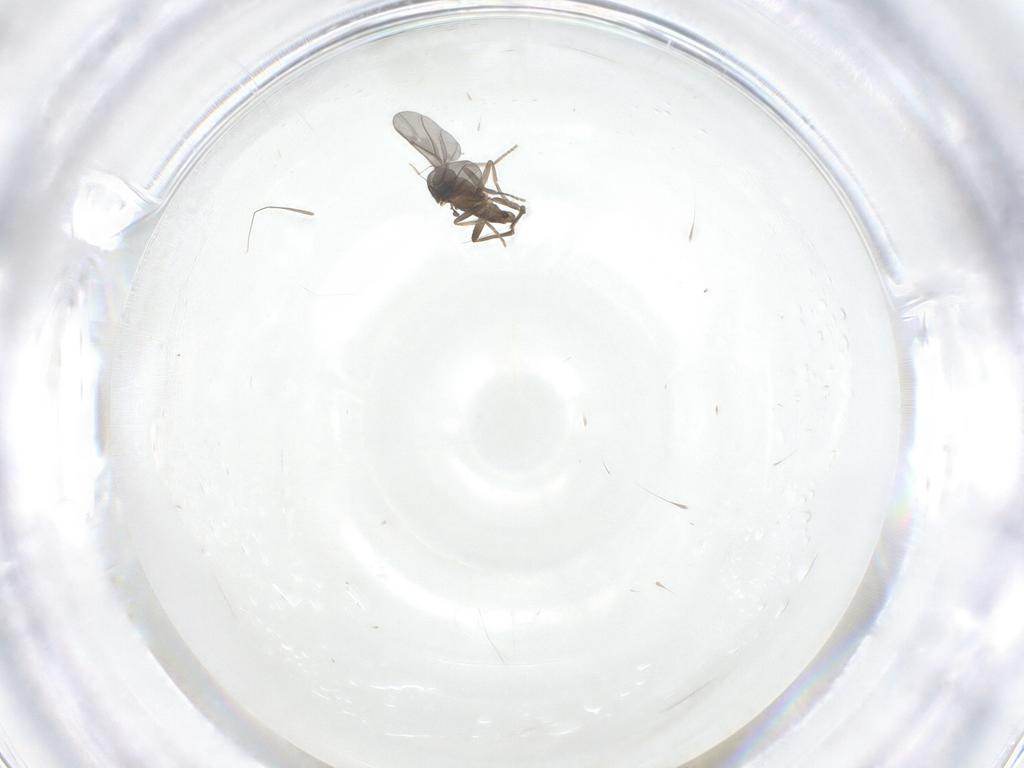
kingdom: Animalia
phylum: Arthropoda
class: Insecta
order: Diptera
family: Phoridae
